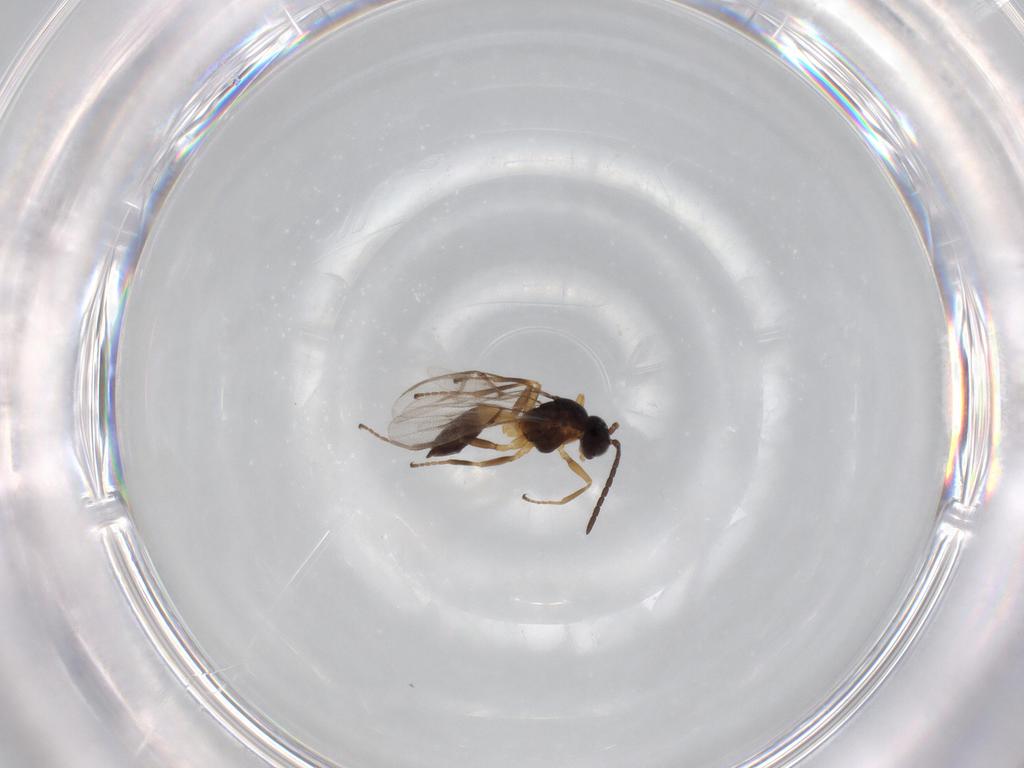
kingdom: Animalia
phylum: Arthropoda
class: Insecta
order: Hymenoptera
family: Braconidae
